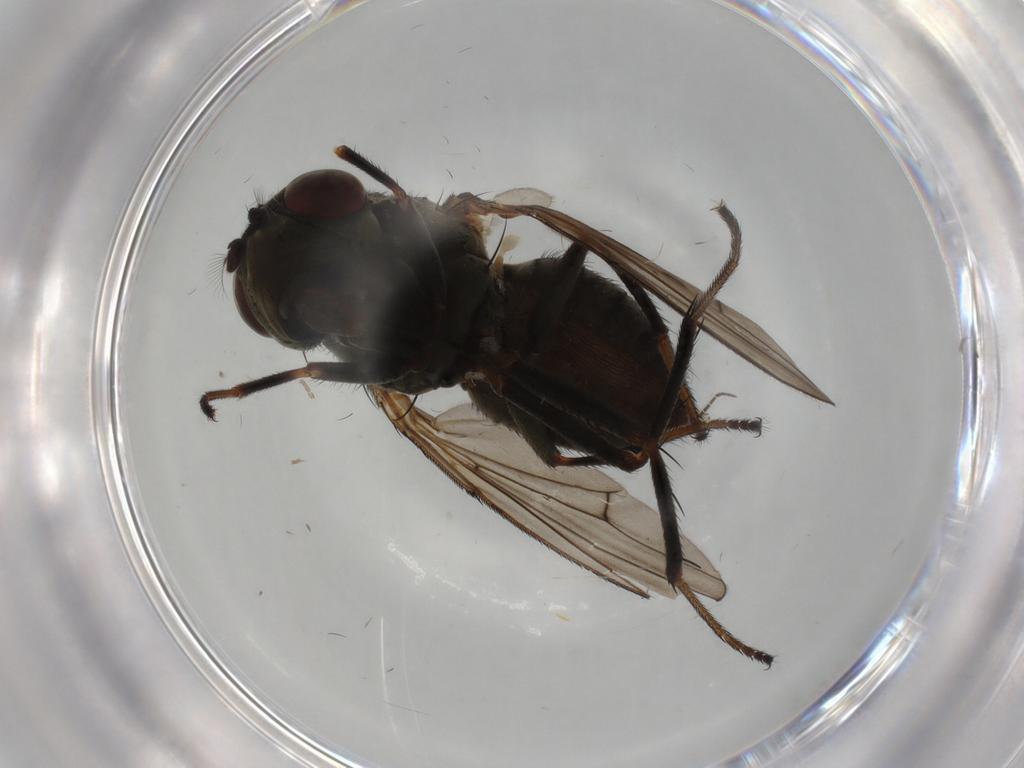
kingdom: Animalia
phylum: Arthropoda
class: Insecta
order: Diptera
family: Ephydridae
